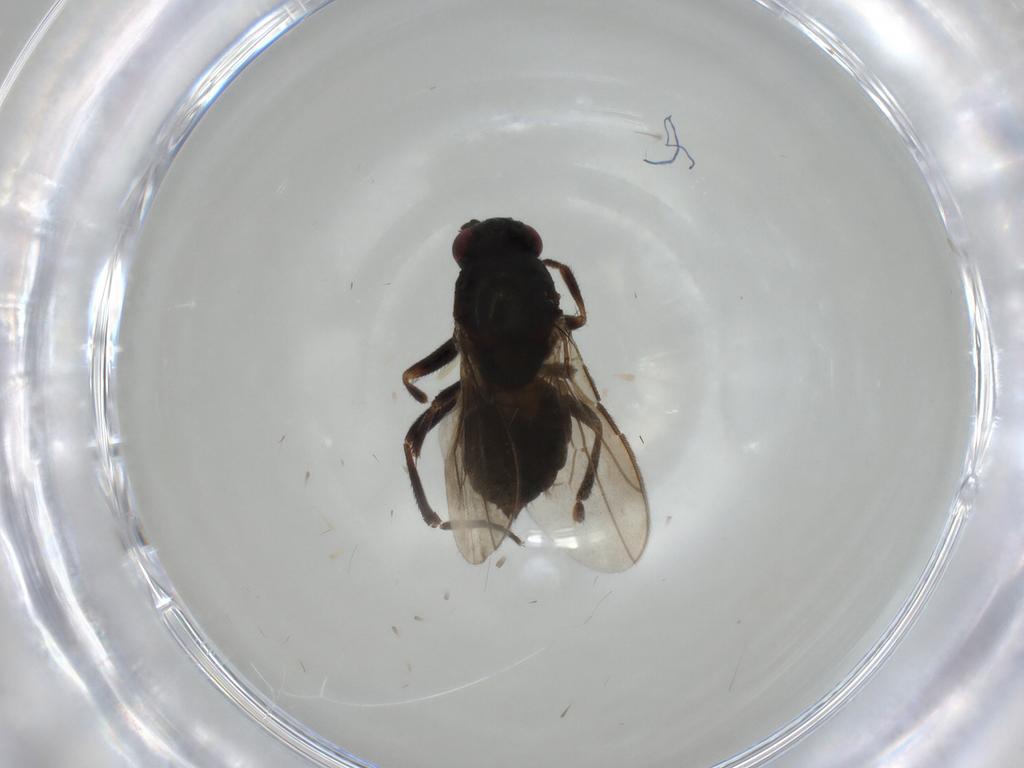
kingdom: Animalia
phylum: Arthropoda
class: Insecta
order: Diptera
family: Sphaeroceridae
